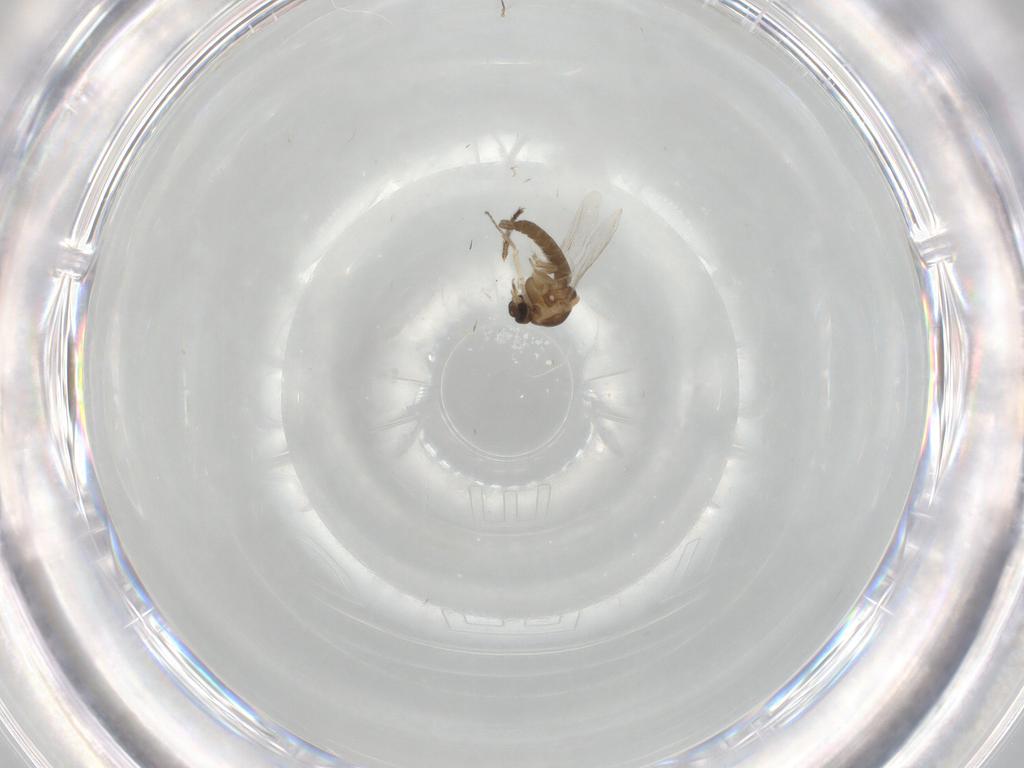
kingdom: Animalia
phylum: Arthropoda
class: Insecta
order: Diptera
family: Ceratopogonidae
